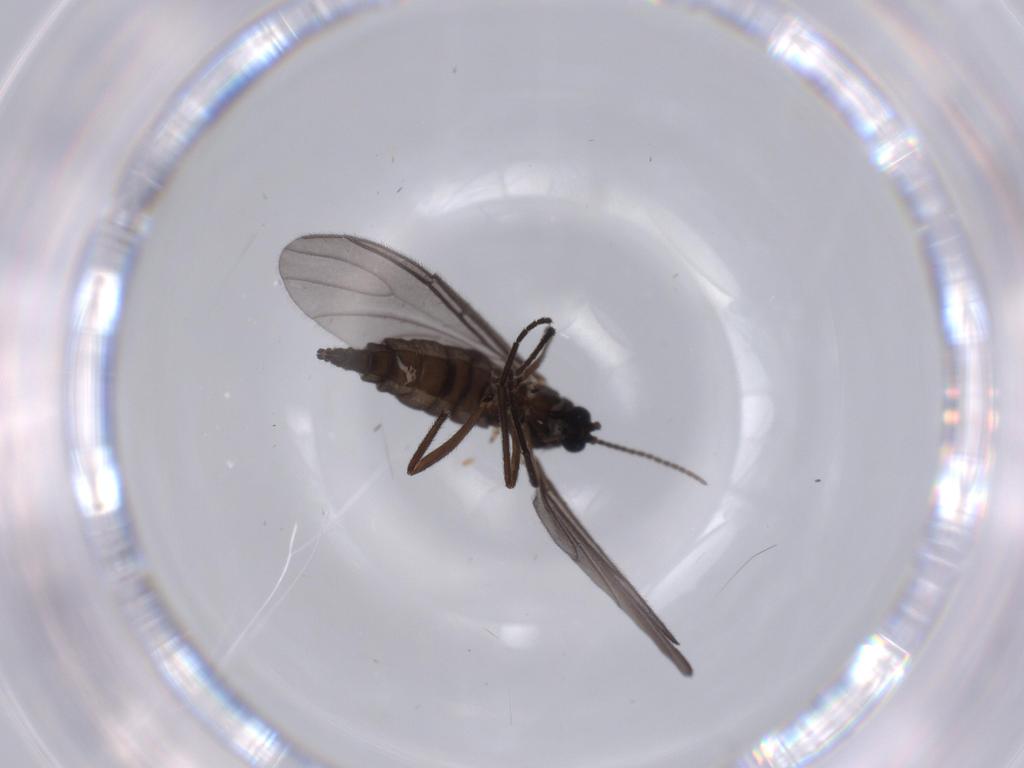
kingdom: Animalia
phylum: Arthropoda
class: Insecta
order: Diptera
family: Sciaridae
